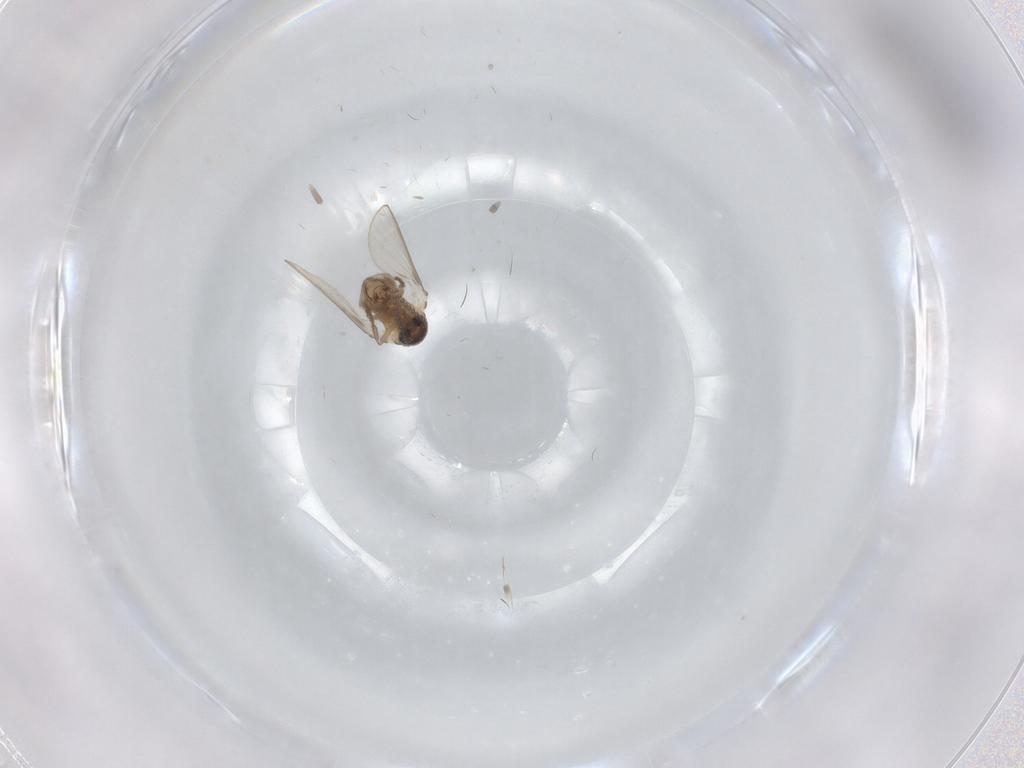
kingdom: Animalia
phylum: Arthropoda
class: Insecta
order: Diptera
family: Psychodidae
